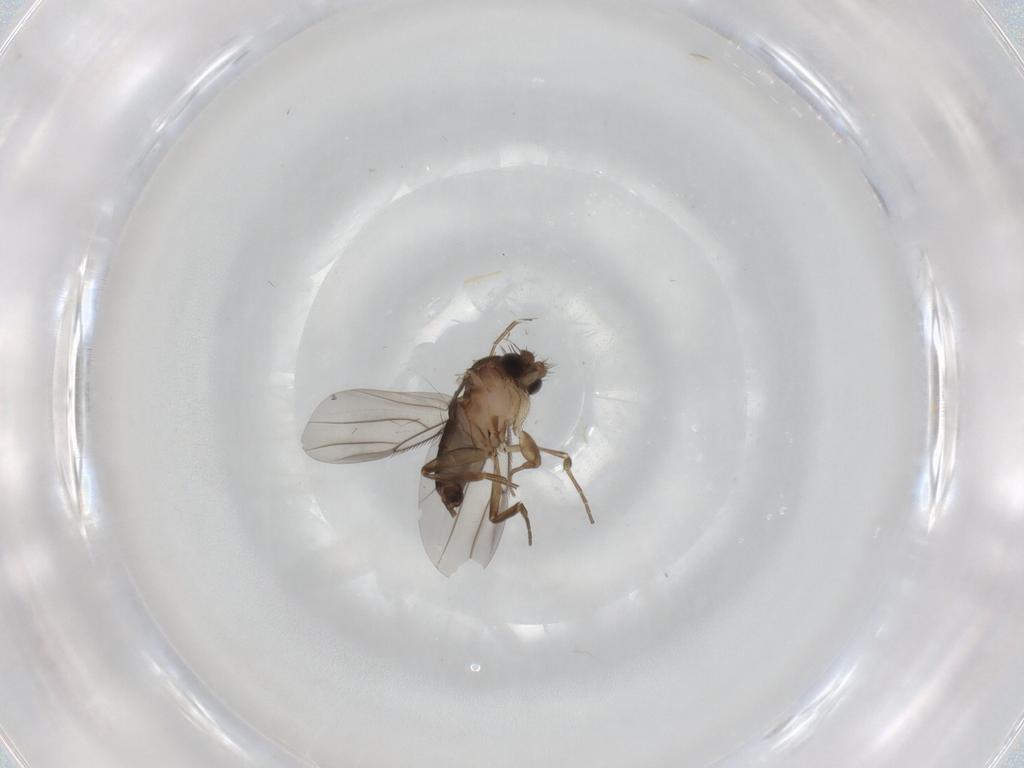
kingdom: Animalia
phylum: Arthropoda
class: Insecta
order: Diptera
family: Phoridae
